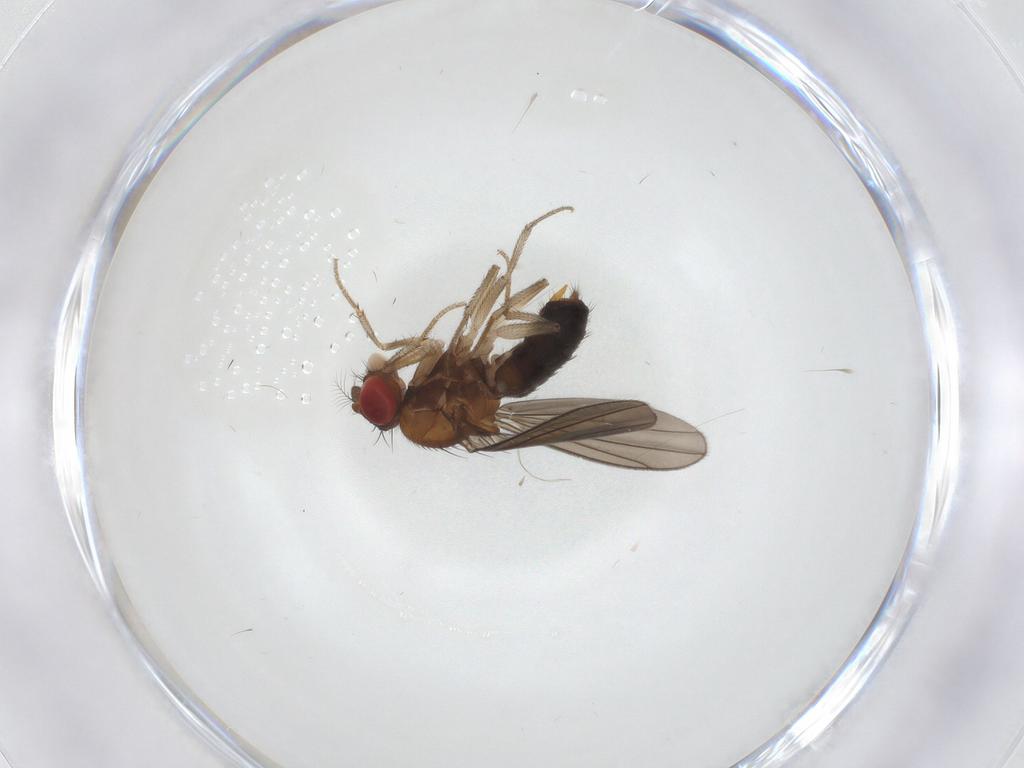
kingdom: Animalia
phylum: Arthropoda
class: Insecta
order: Diptera
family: Drosophilidae
